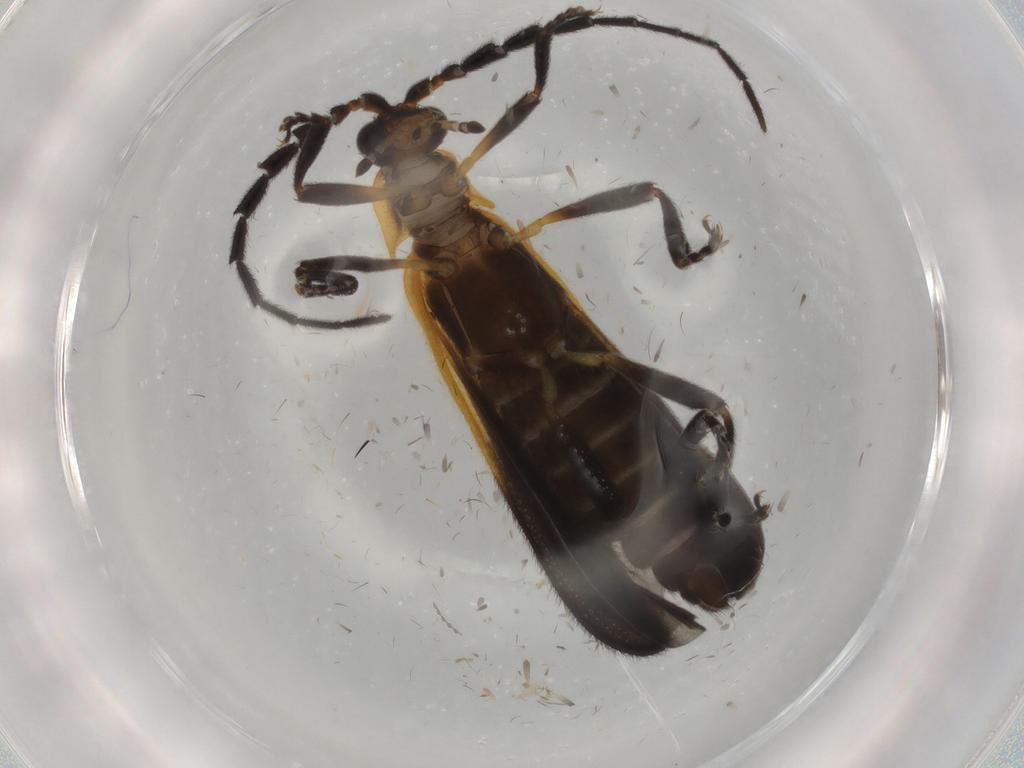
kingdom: Animalia
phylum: Arthropoda
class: Insecta
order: Coleoptera
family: Lycidae
